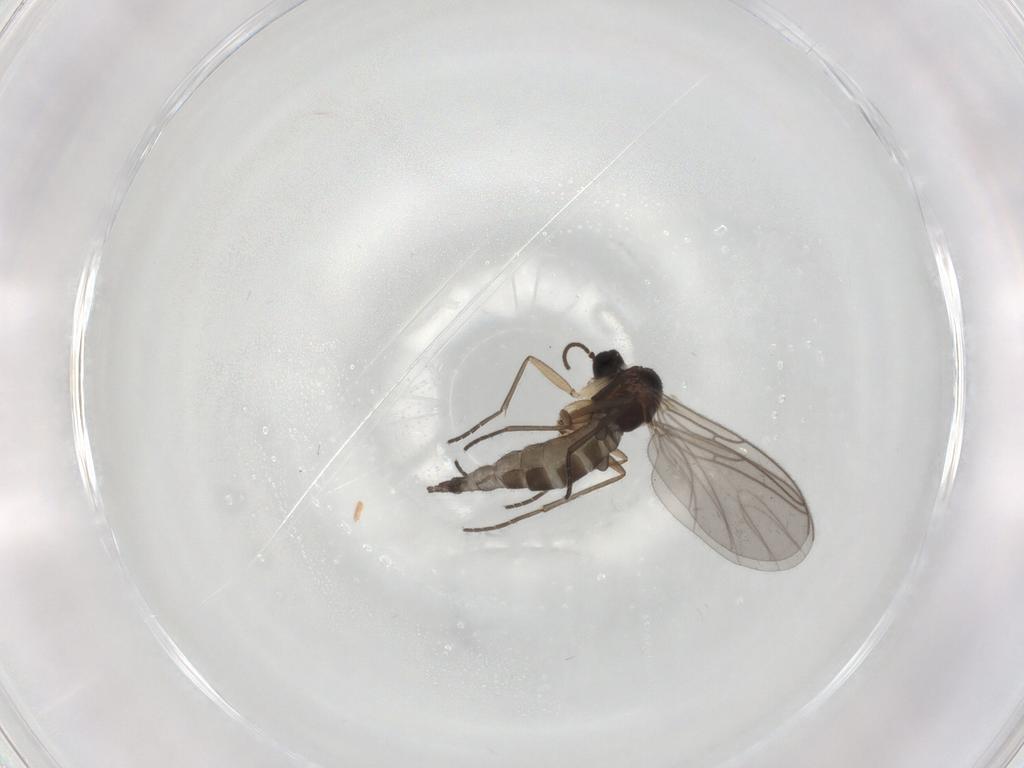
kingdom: Animalia
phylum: Arthropoda
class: Insecta
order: Diptera
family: Sciaridae
